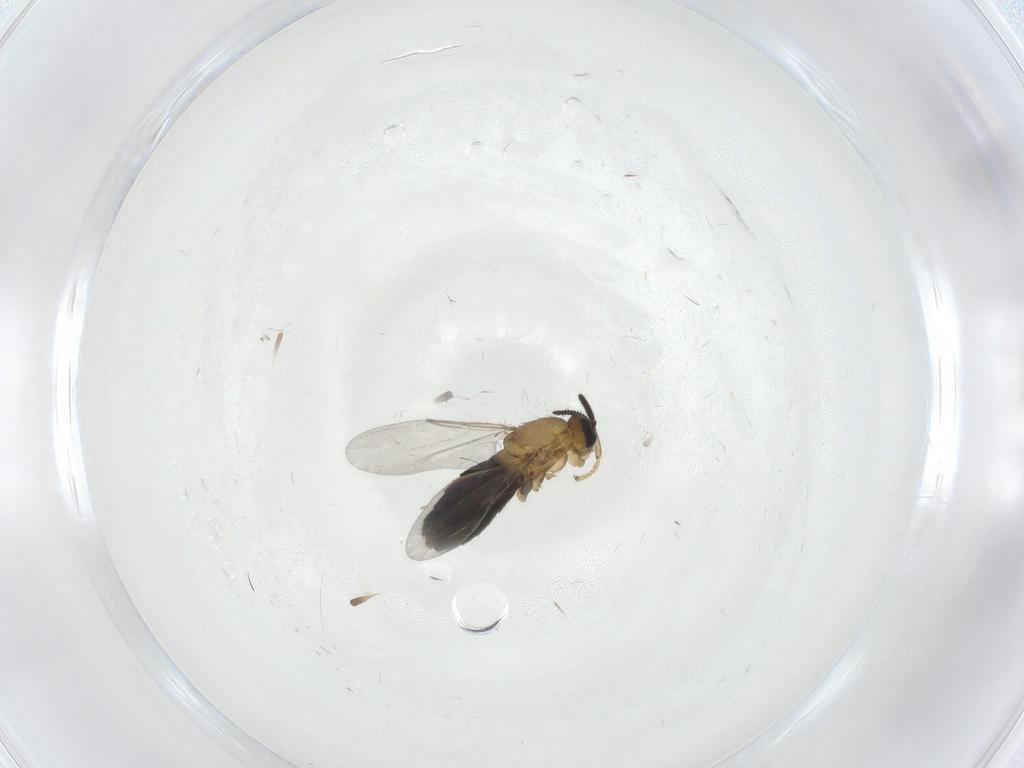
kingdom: Animalia
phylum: Arthropoda
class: Insecta
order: Diptera
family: Scatopsidae
